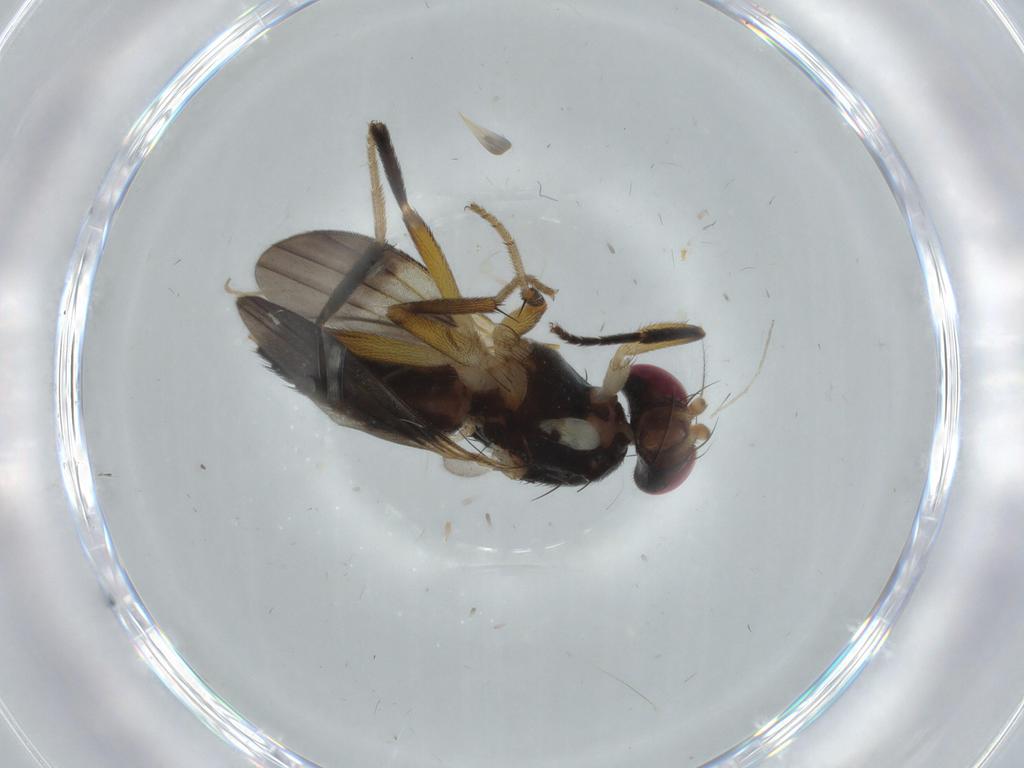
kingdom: Animalia
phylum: Arthropoda
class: Insecta
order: Diptera
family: Clusiidae
